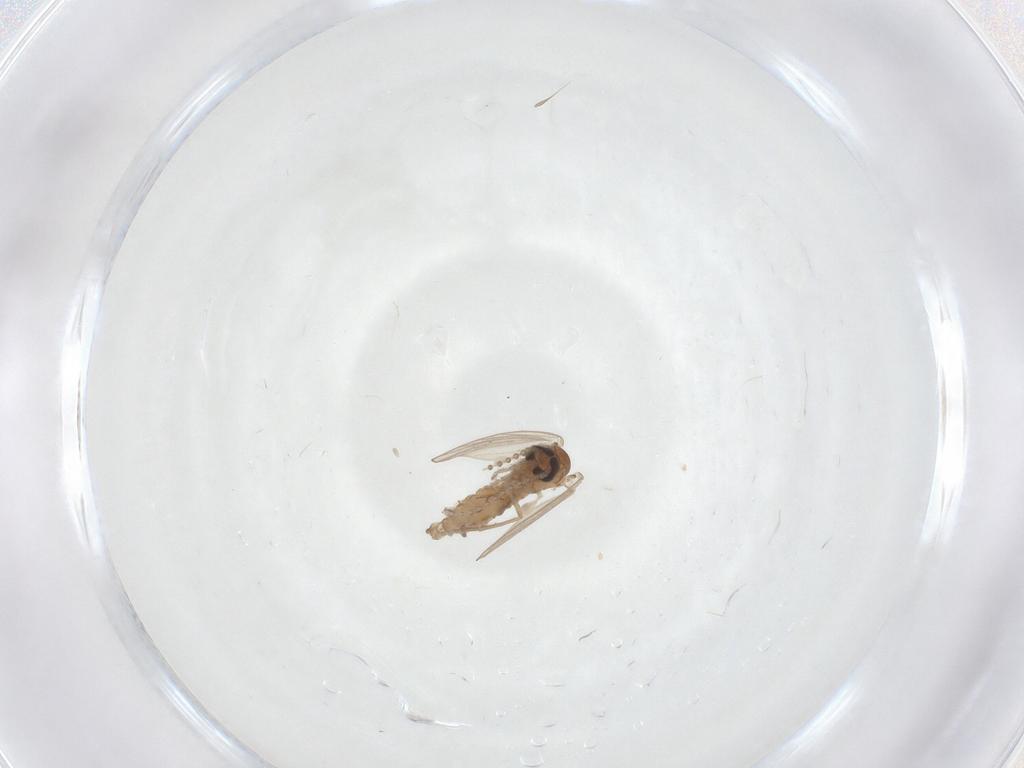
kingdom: Animalia
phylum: Arthropoda
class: Insecta
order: Diptera
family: Psychodidae
